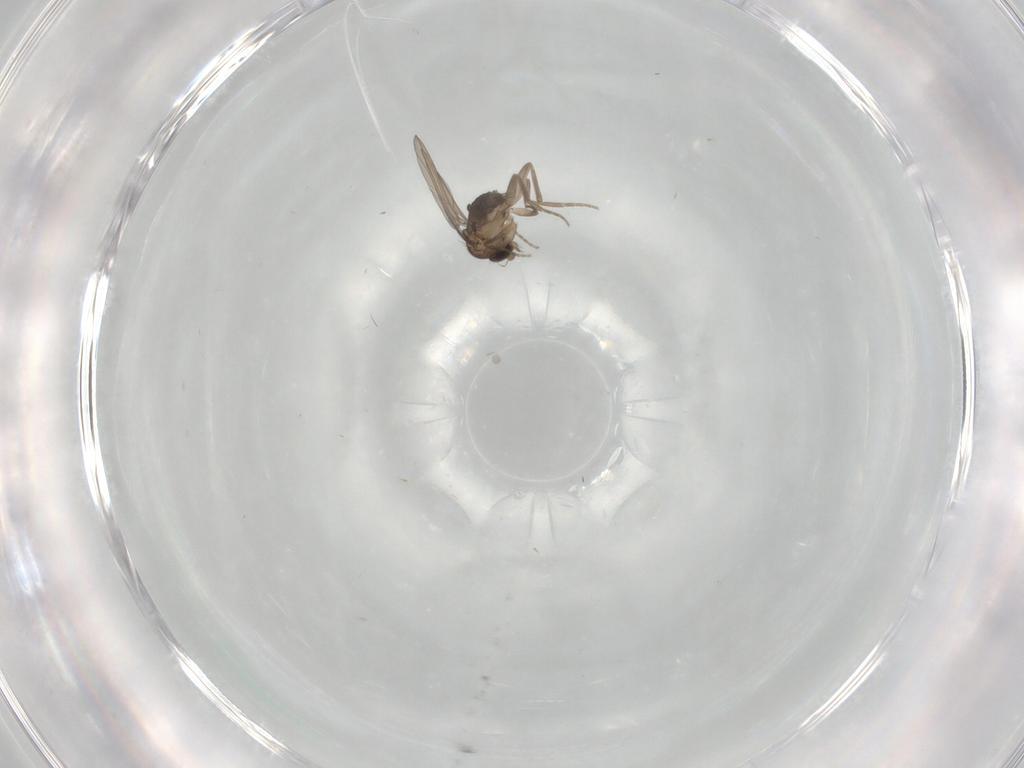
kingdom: Animalia
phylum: Arthropoda
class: Insecta
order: Diptera
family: Phoridae
